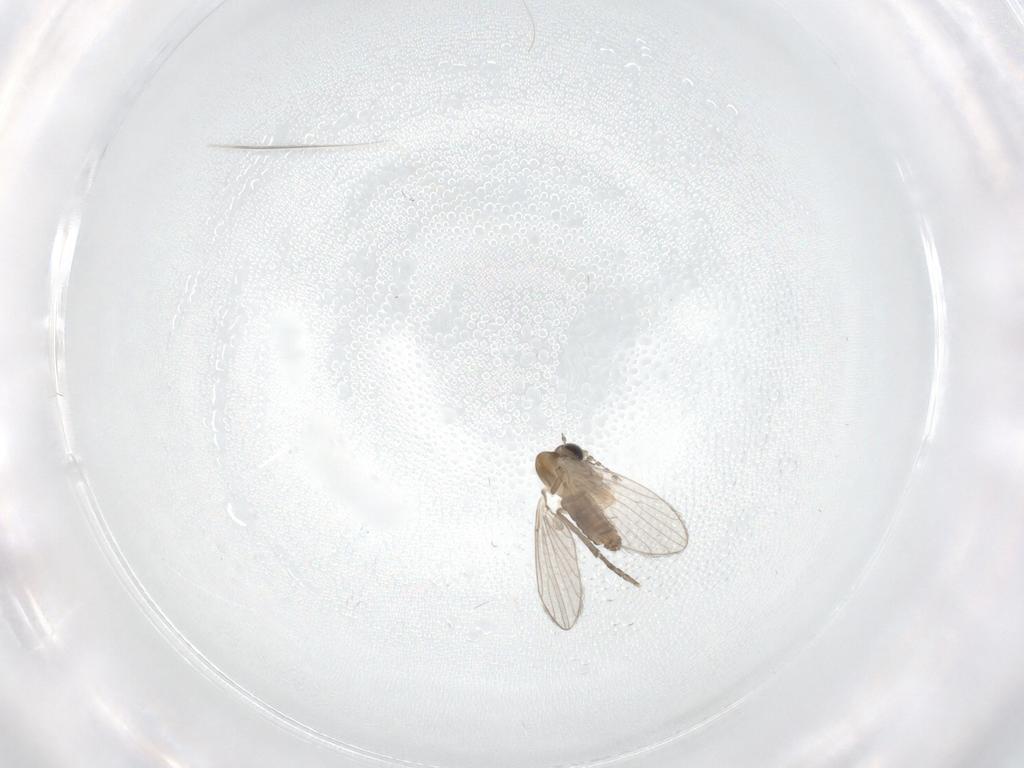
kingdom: Animalia
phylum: Arthropoda
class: Insecta
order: Diptera
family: Psychodidae
